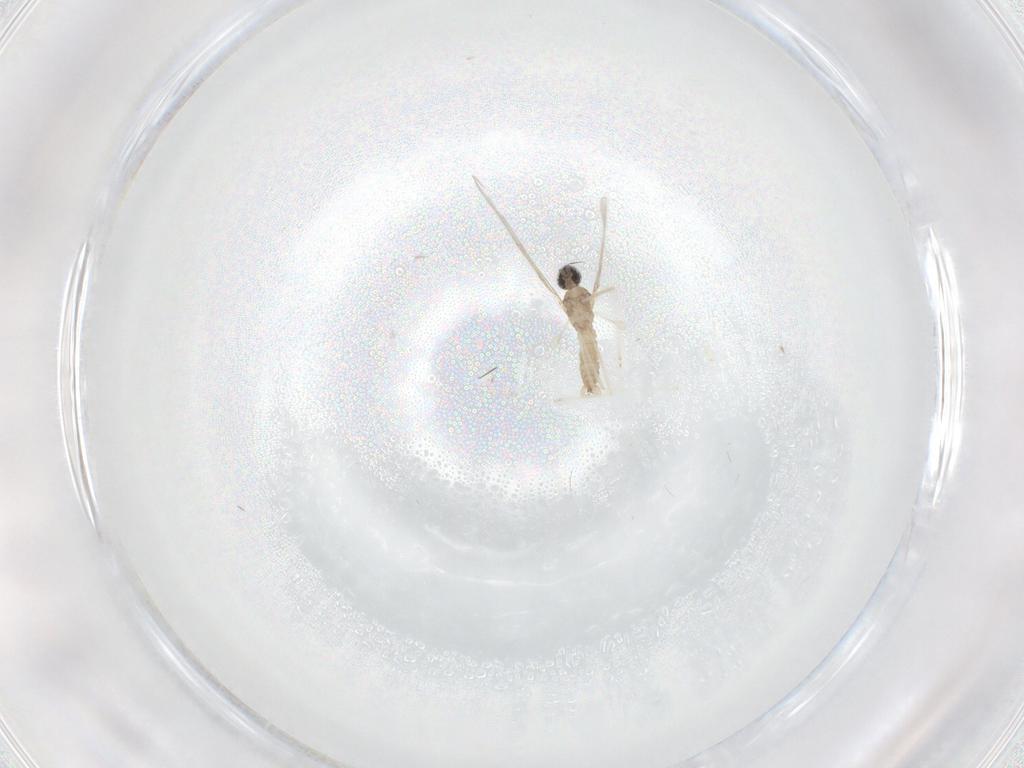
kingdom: Animalia
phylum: Arthropoda
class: Insecta
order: Diptera
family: Cecidomyiidae
